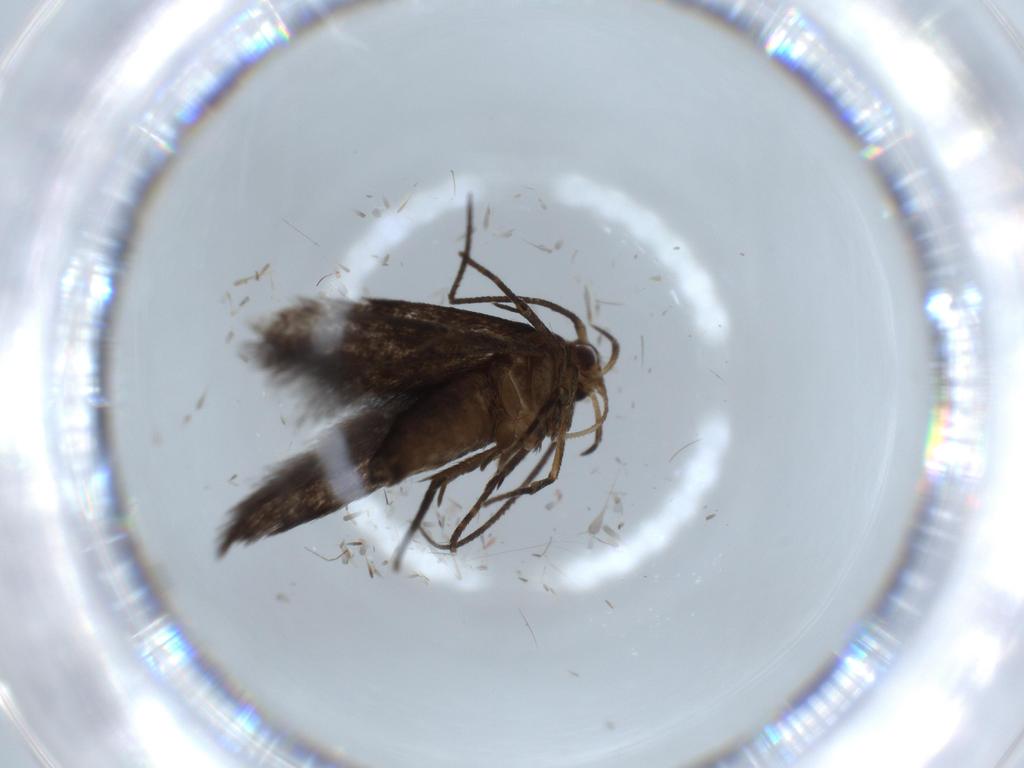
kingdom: Animalia
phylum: Arthropoda
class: Insecta
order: Lepidoptera
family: Cosmopterigidae
